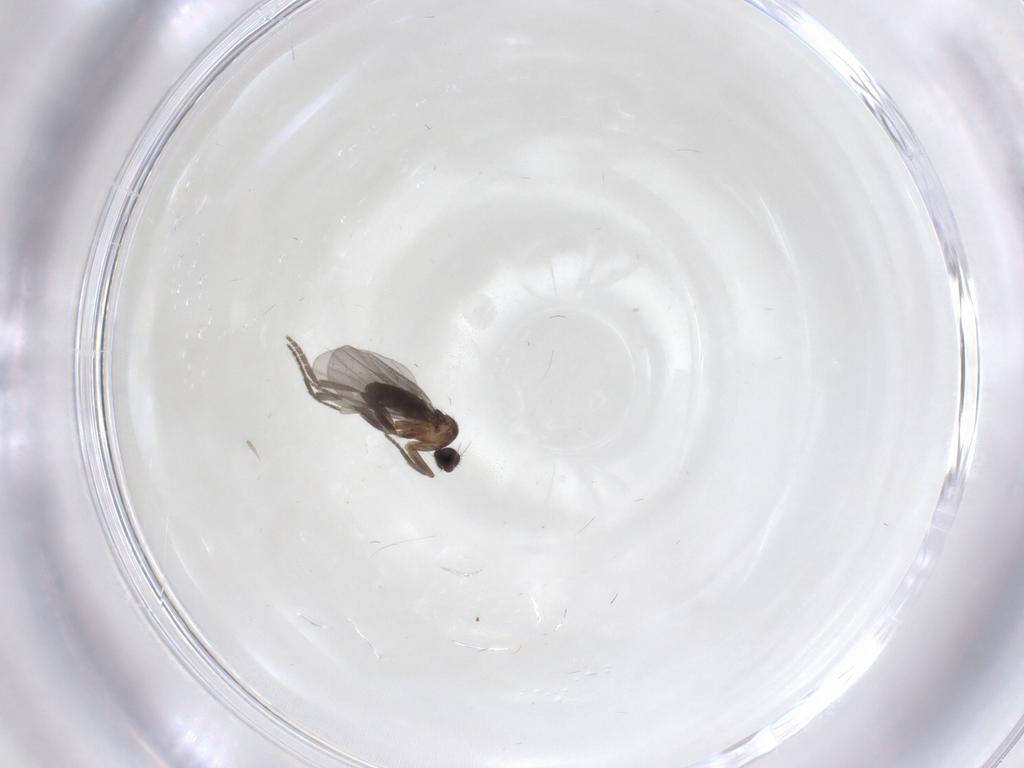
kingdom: Animalia
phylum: Arthropoda
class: Insecta
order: Diptera
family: Phoridae
